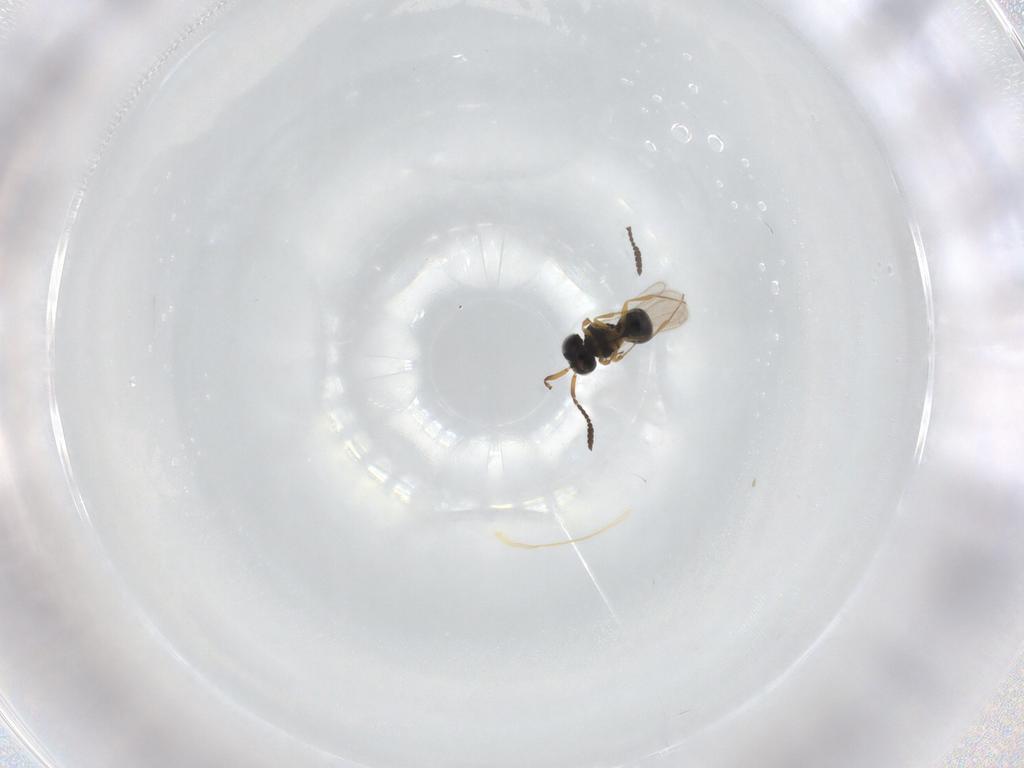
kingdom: Animalia
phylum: Arthropoda
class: Insecta
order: Hymenoptera
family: Scelionidae
